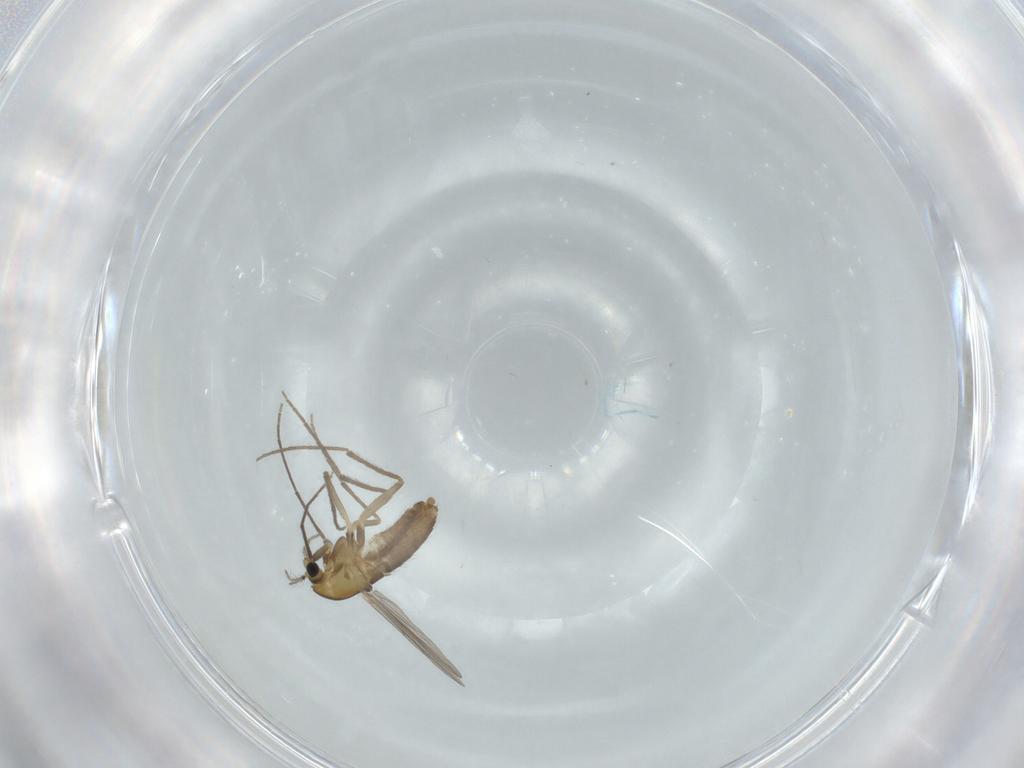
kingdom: Animalia
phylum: Arthropoda
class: Insecta
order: Diptera
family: Chironomidae
